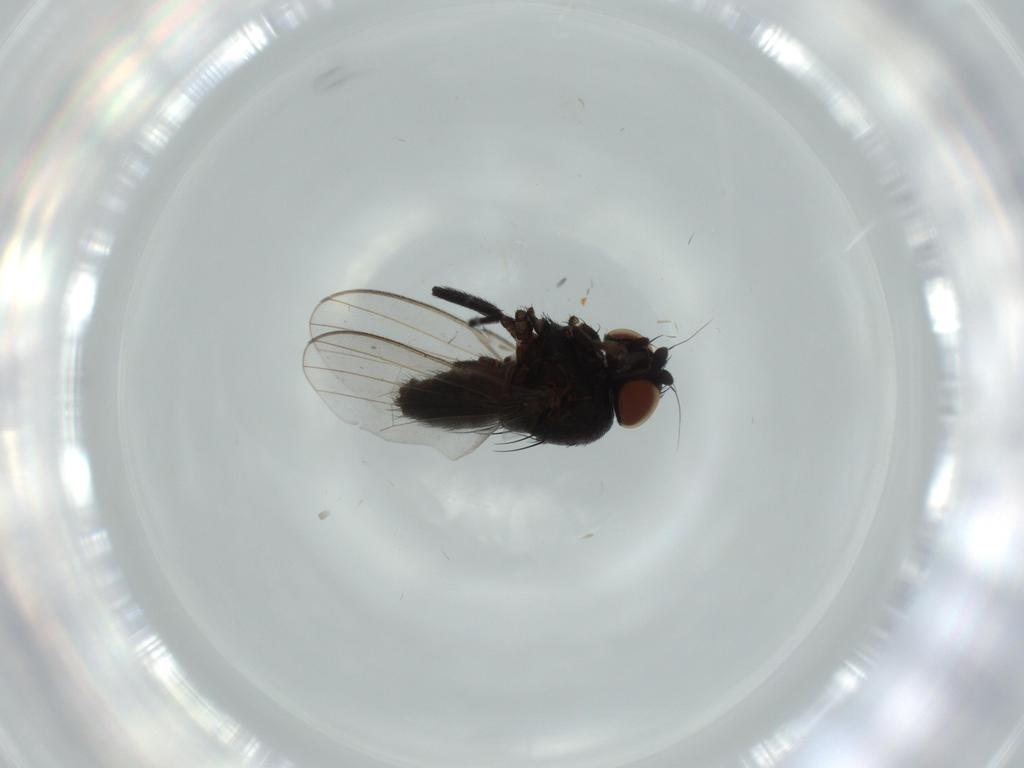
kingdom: Animalia
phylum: Arthropoda
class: Insecta
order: Diptera
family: Milichiidae
